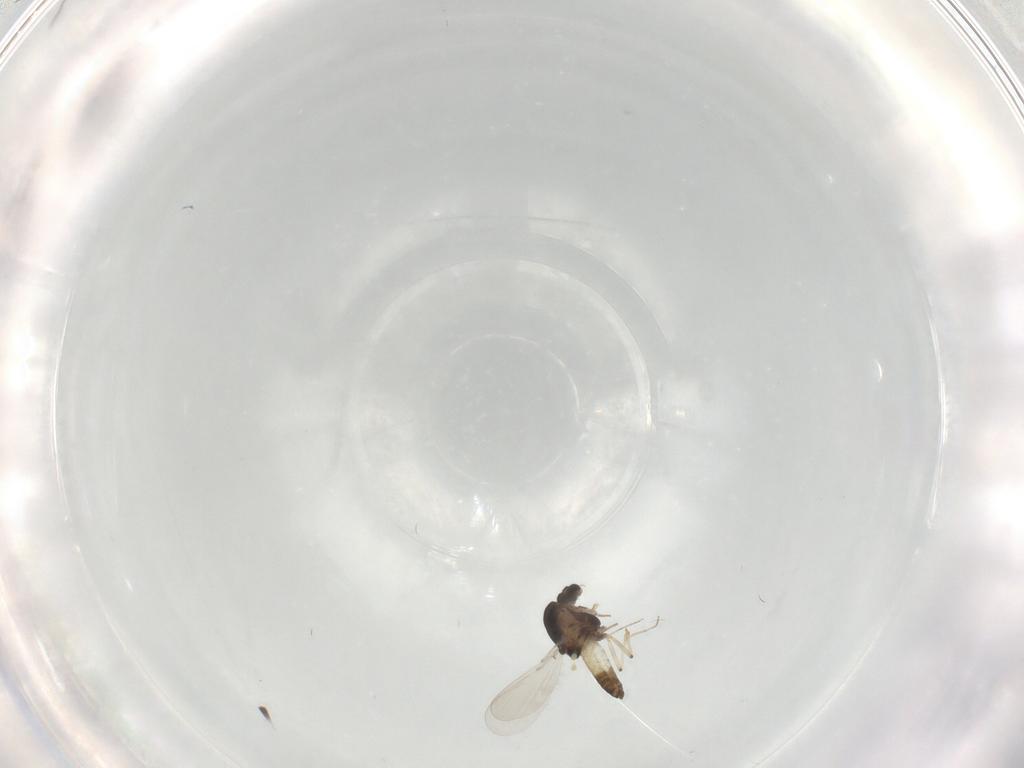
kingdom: Animalia
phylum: Arthropoda
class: Insecta
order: Diptera
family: Chironomidae
